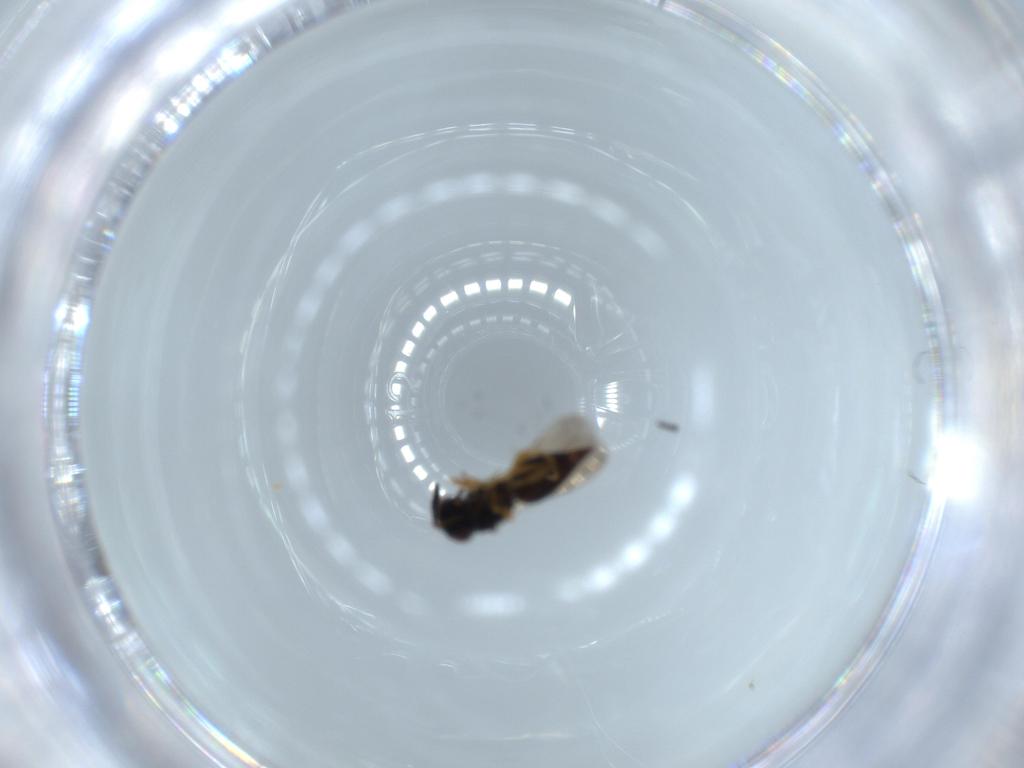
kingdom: Animalia
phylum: Arthropoda
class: Insecta
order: Hymenoptera
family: Ceraphronidae
